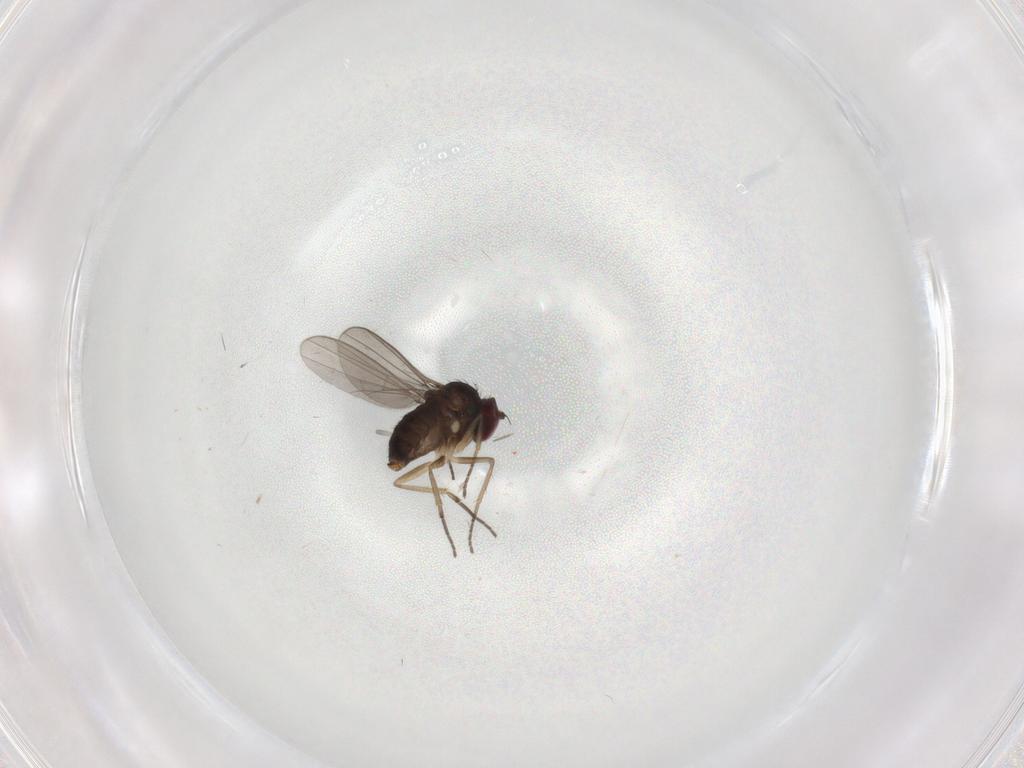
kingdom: Animalia
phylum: Arthropoda
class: Insecta
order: Diptera
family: Dolichopodidae
